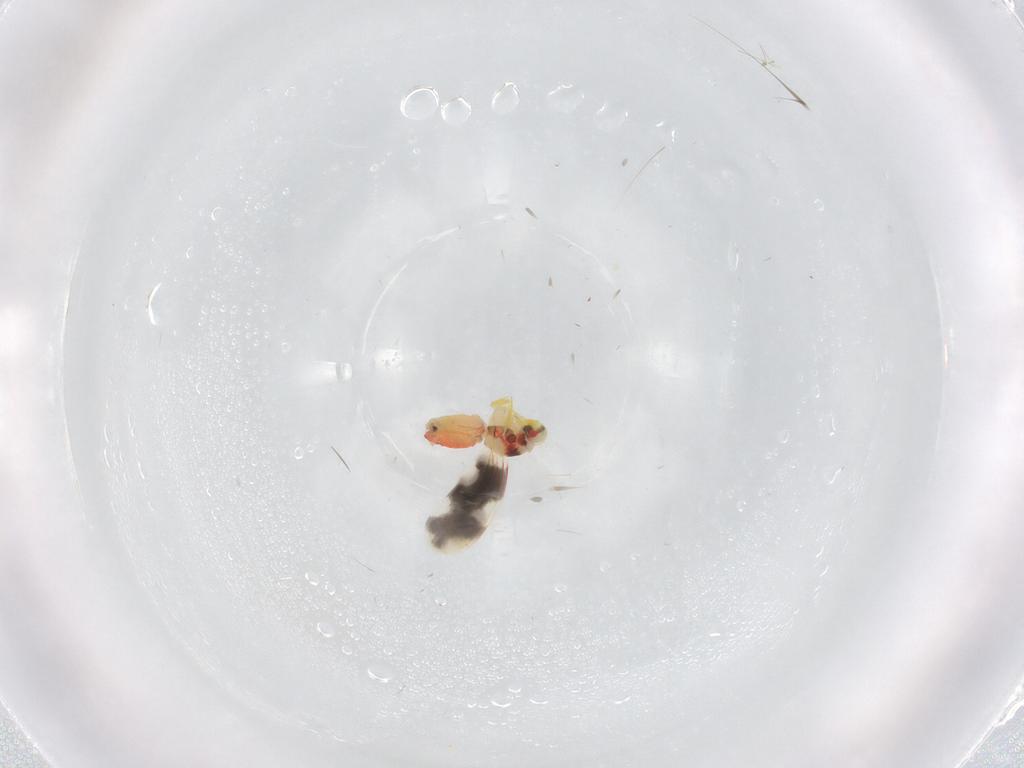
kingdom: Animalia
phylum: Arthropoda
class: Insecta
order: Hemiptera
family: Aleyrodidae
